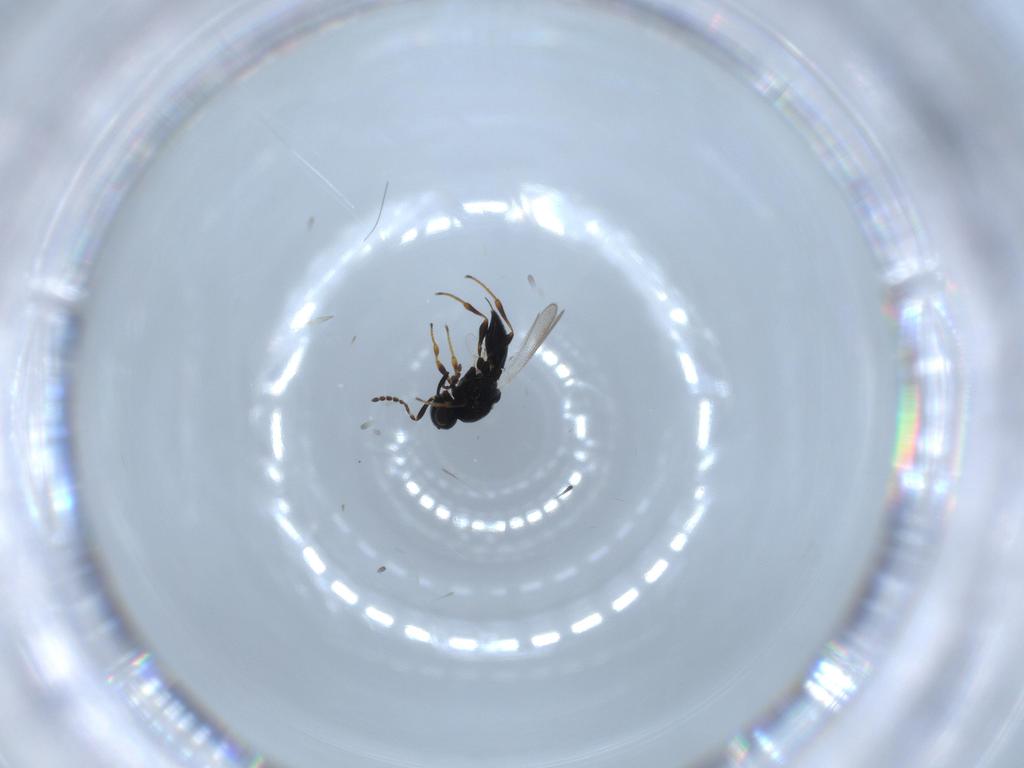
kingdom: Animalia
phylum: Arthropoda
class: Insecta
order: Hymenoptera
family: Platygastridae
